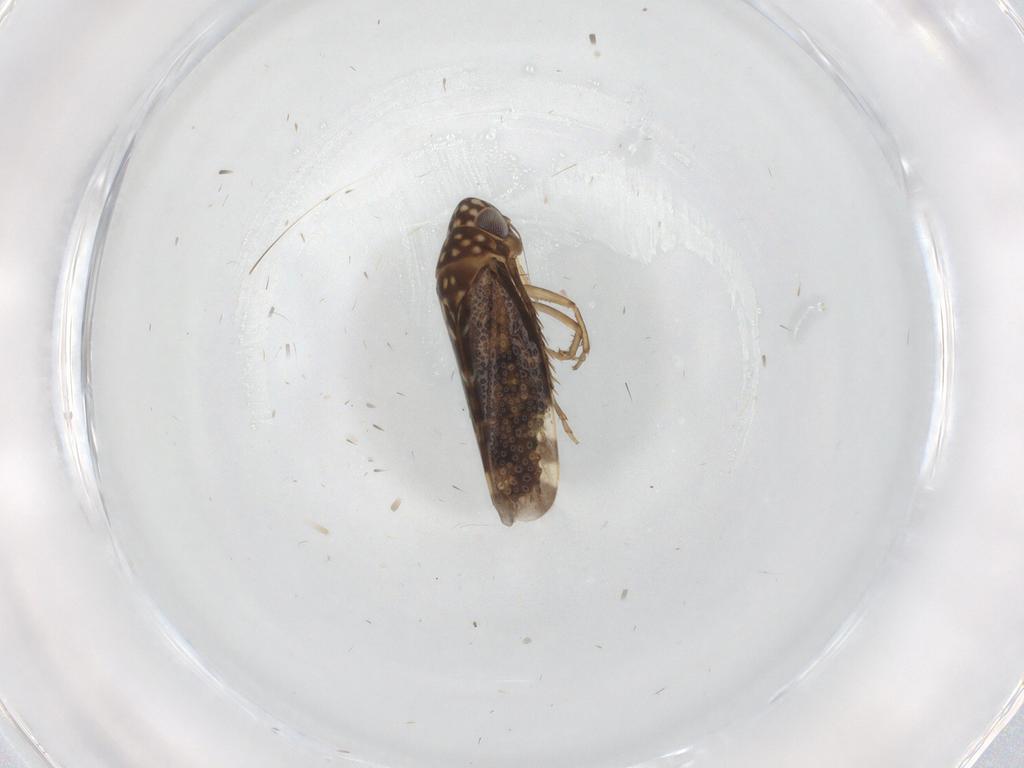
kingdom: Animalia
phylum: Arthropoda
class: Insecta
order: Hemiptera
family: Cicadellidae
